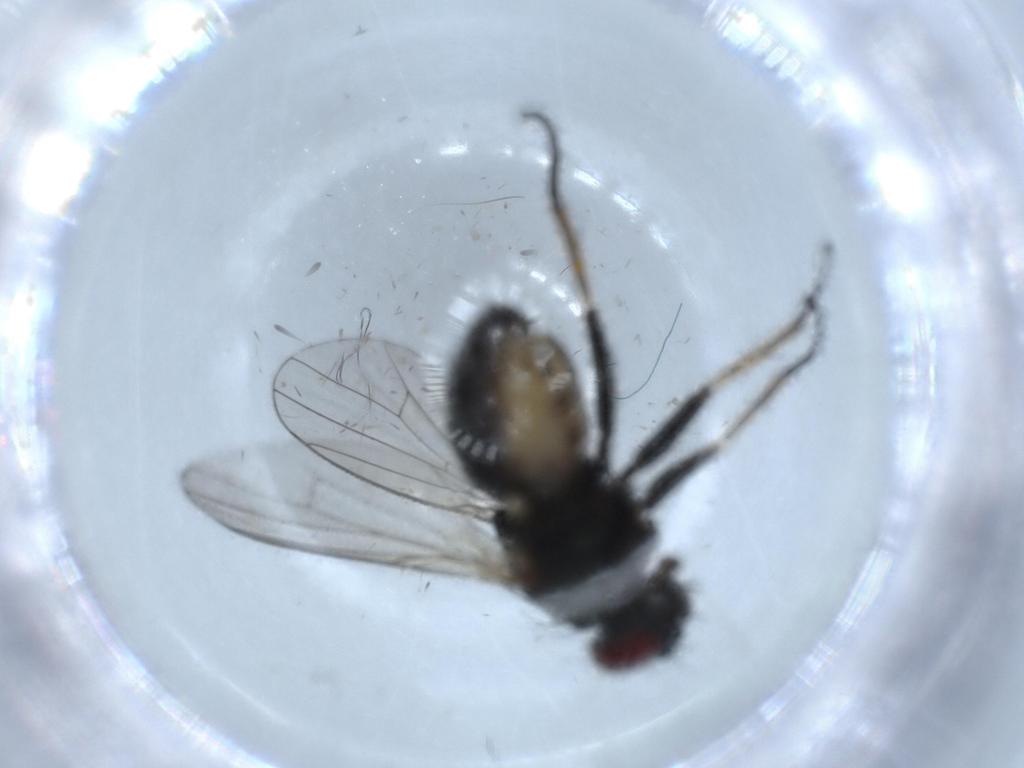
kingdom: Animalia
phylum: Arthropoda
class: Insecta
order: Diptera
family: Muscidae
